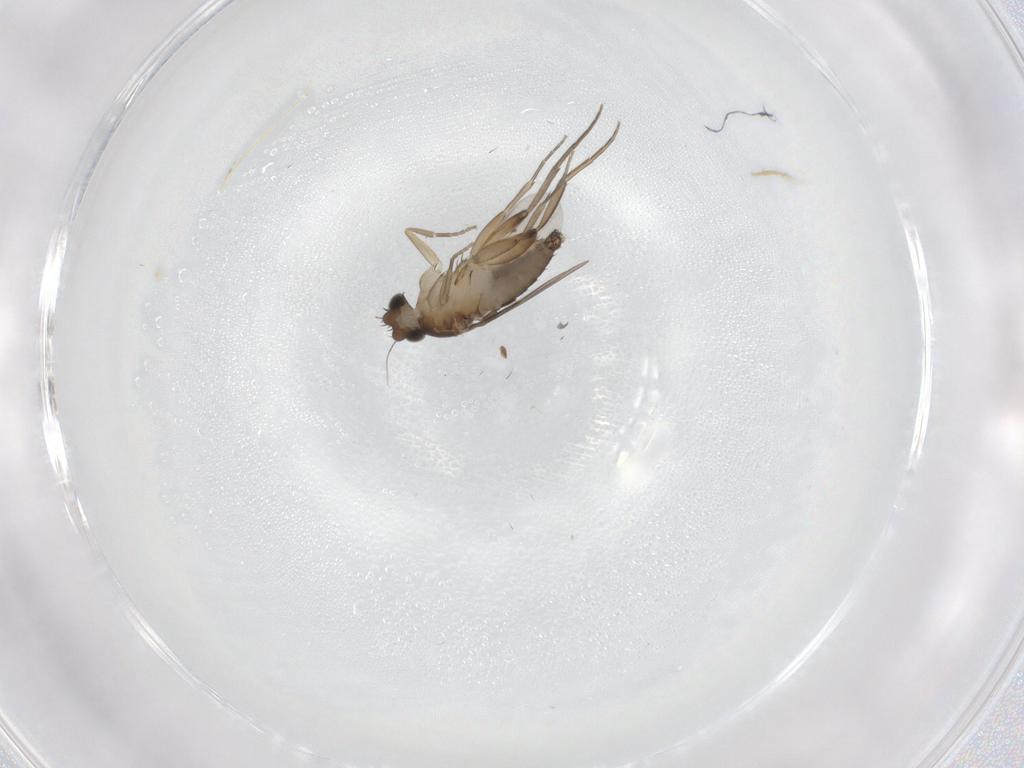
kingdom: Animalia
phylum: Arthropoda
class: Insecta
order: Diptera
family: Phoridae
